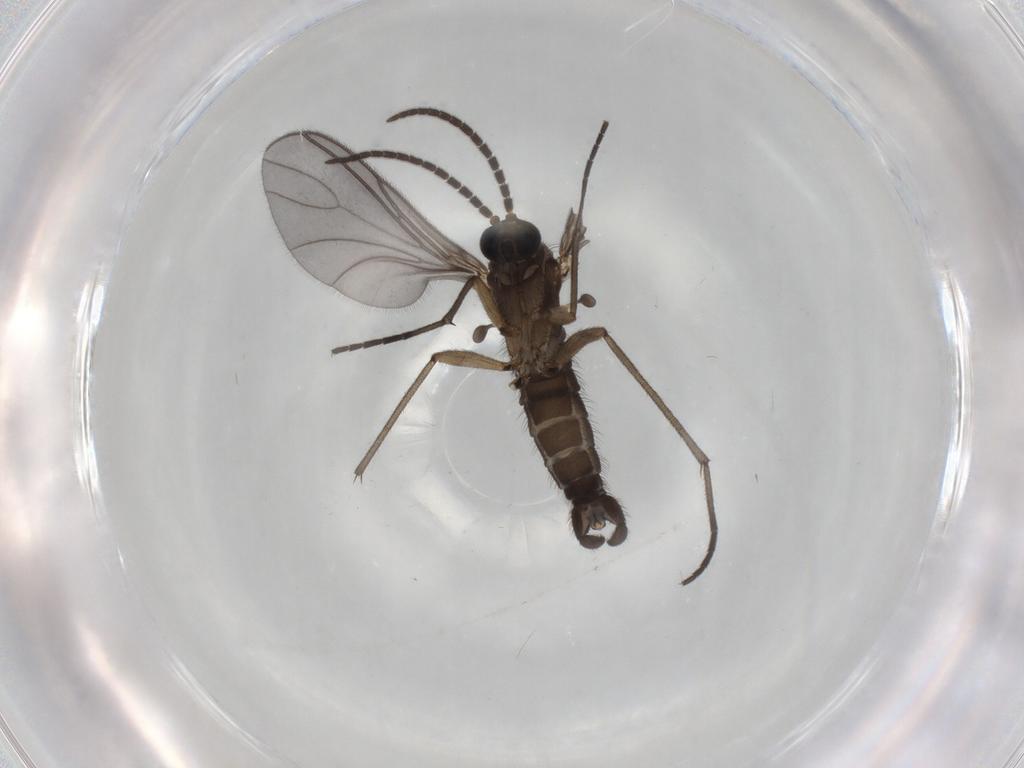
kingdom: Animalia
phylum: Arthropoda
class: Insecta
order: Diptera
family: Sciaridae
